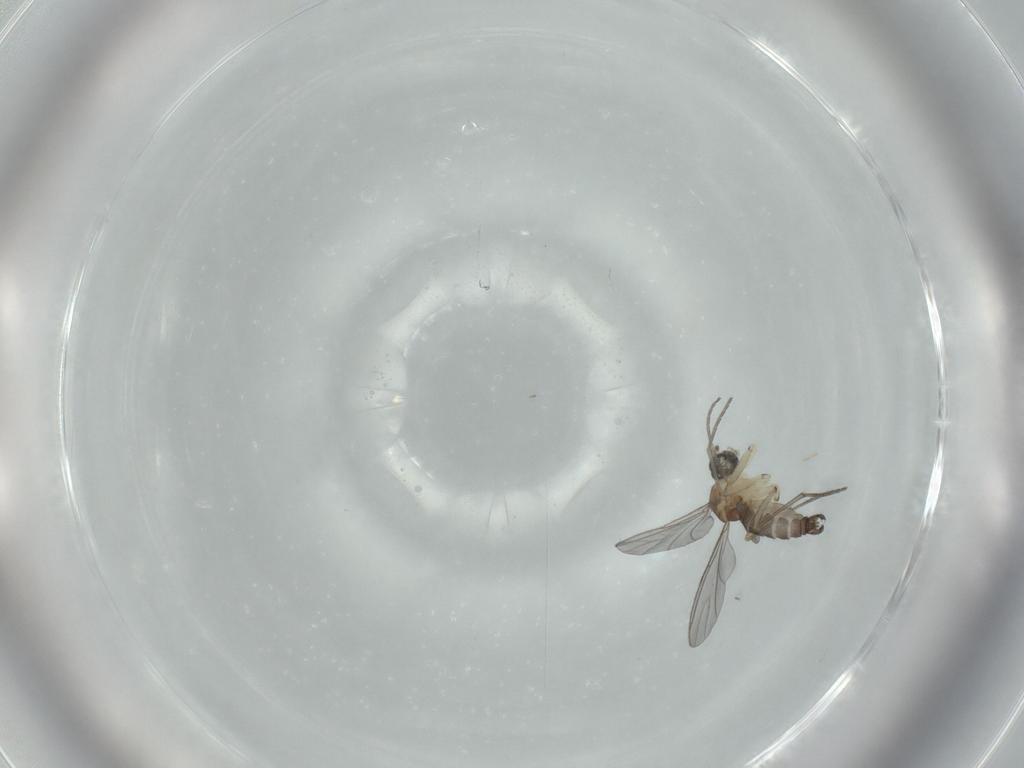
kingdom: Animalia
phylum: Arthropoda
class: Insecta
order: Diptera
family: Sciaridae
